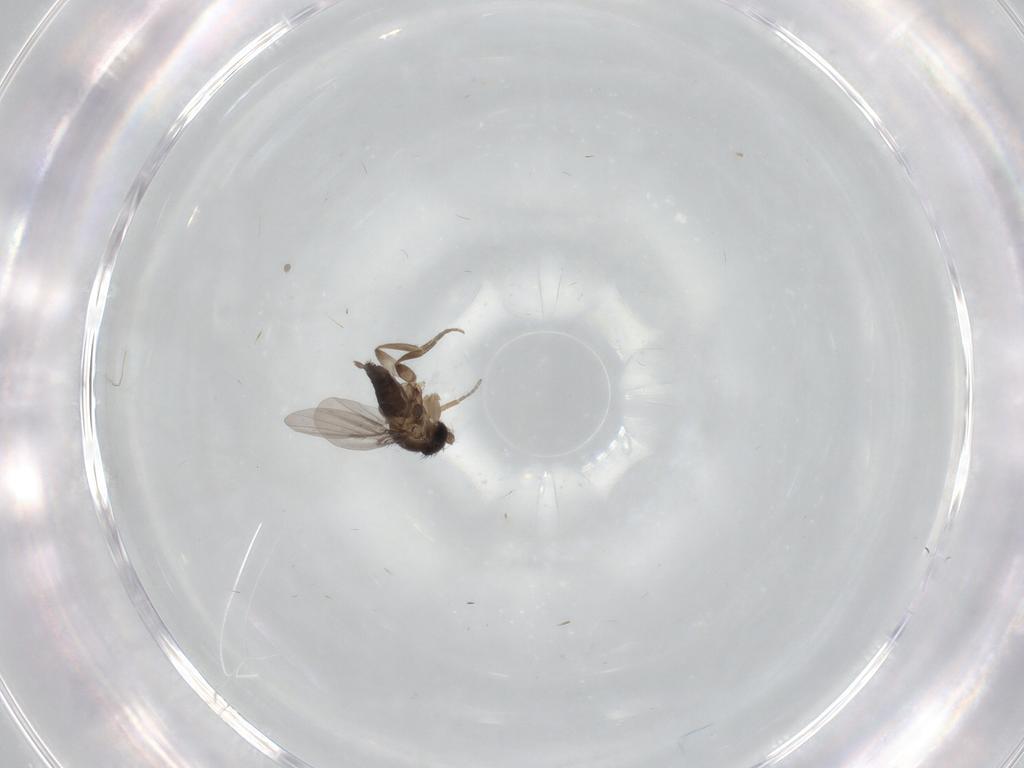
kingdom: Animalia
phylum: Arthropoda
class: Insecta
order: Diptera
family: Phoridae
